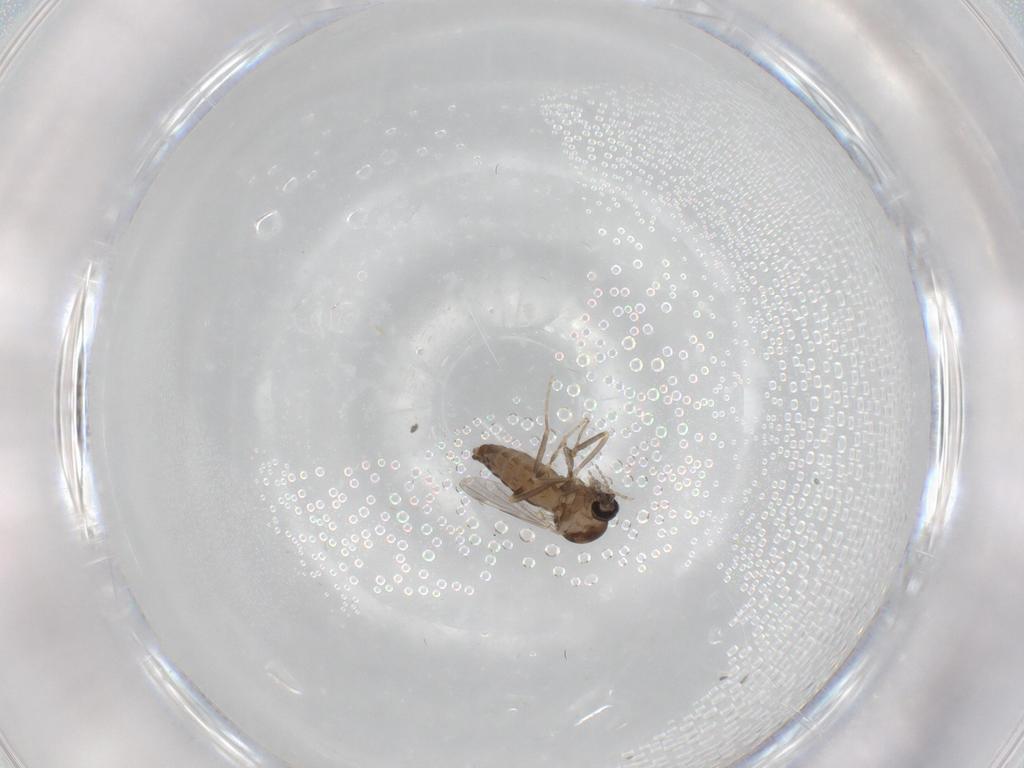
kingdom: Animalia
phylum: Arthropoda
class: Insecta
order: Diptera
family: Ceratopogonidae
